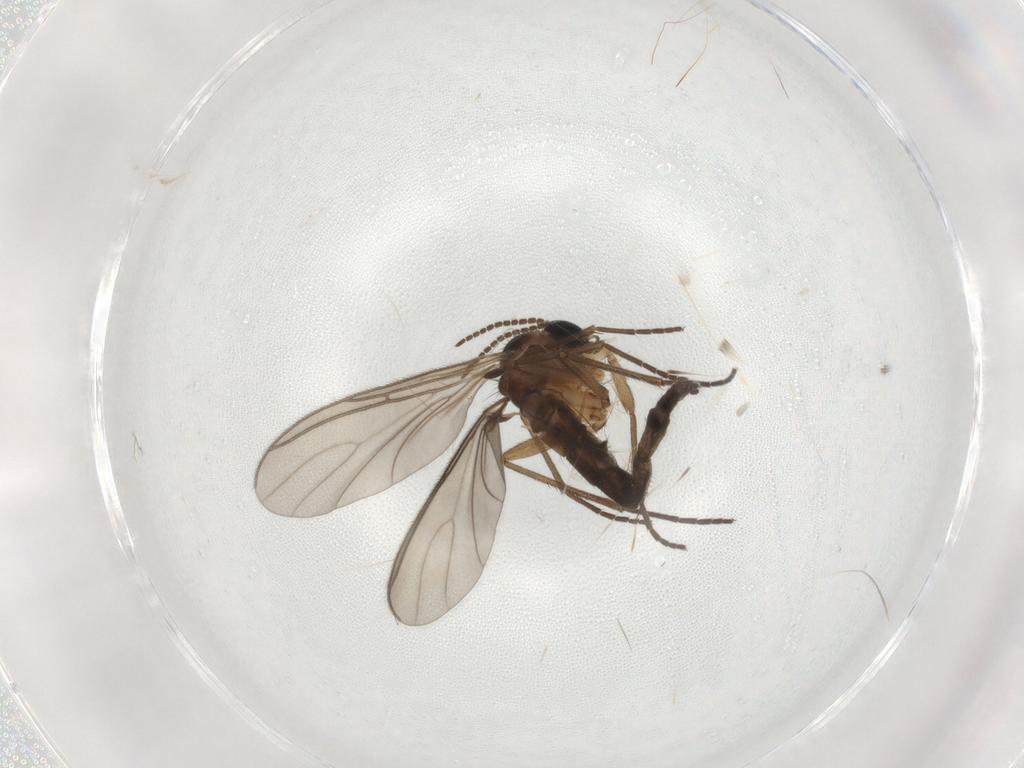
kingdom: Animalia
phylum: Arthropoda
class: Insecta
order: Diptera
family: Sciaridae
